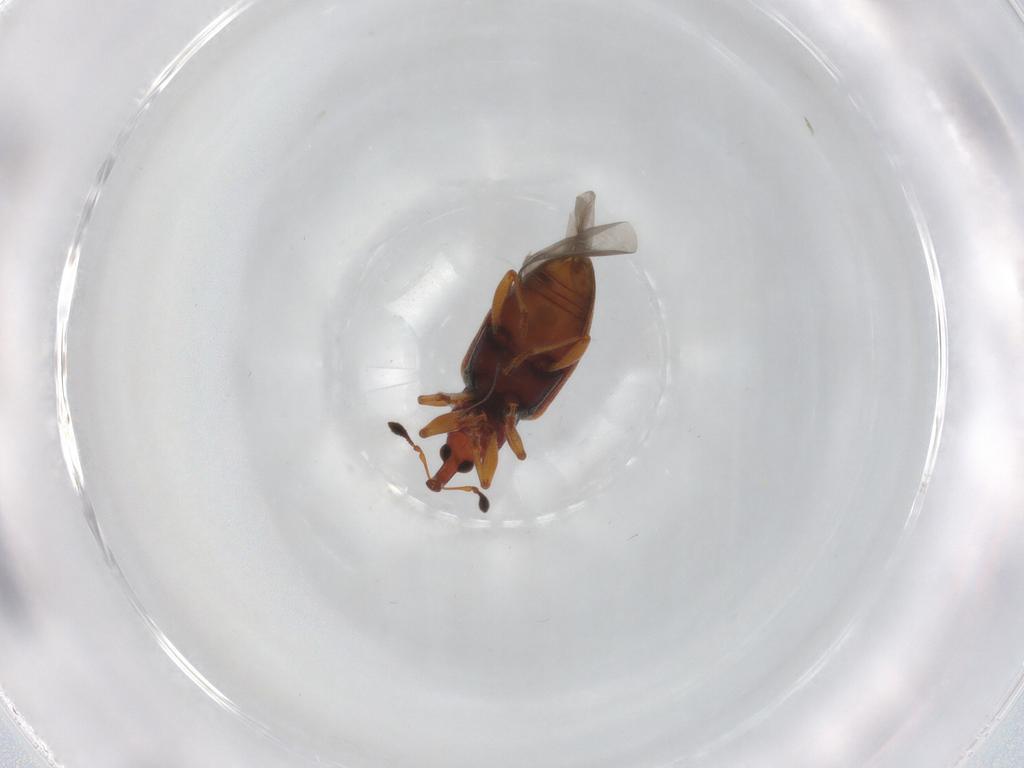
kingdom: Animalia
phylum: Arthropoda
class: Insecta
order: Coleoptera
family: Curculionidae
